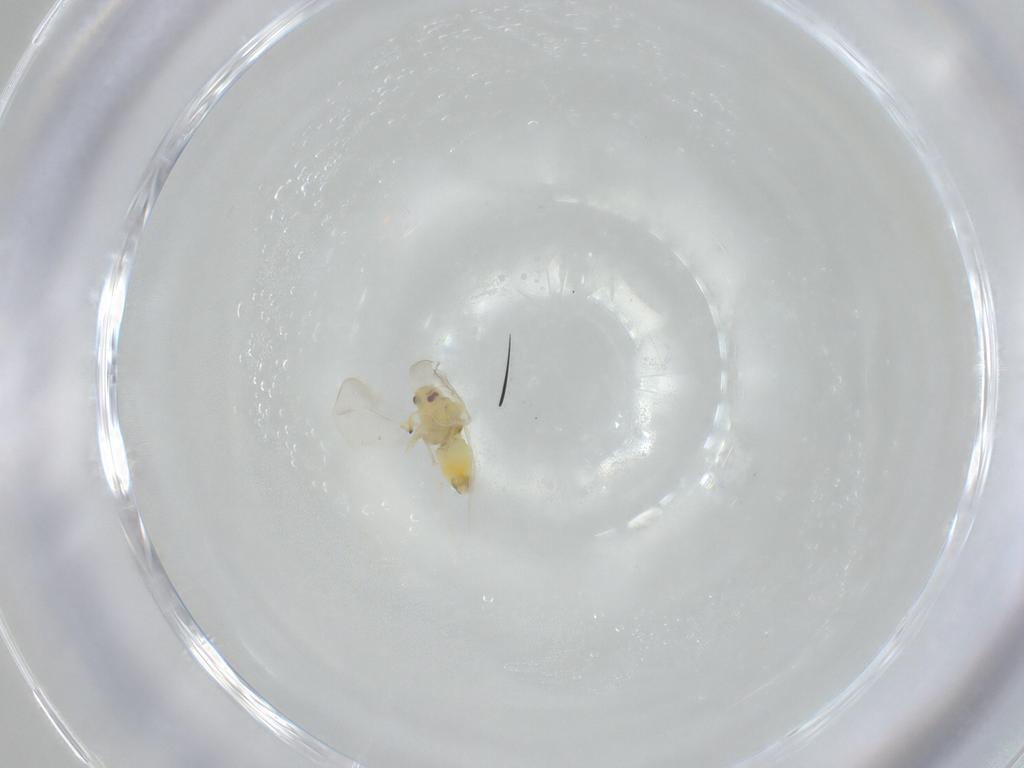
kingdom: Animalia
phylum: Arthropoda
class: Insecta
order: Hemiptera
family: Aleyrodidae
